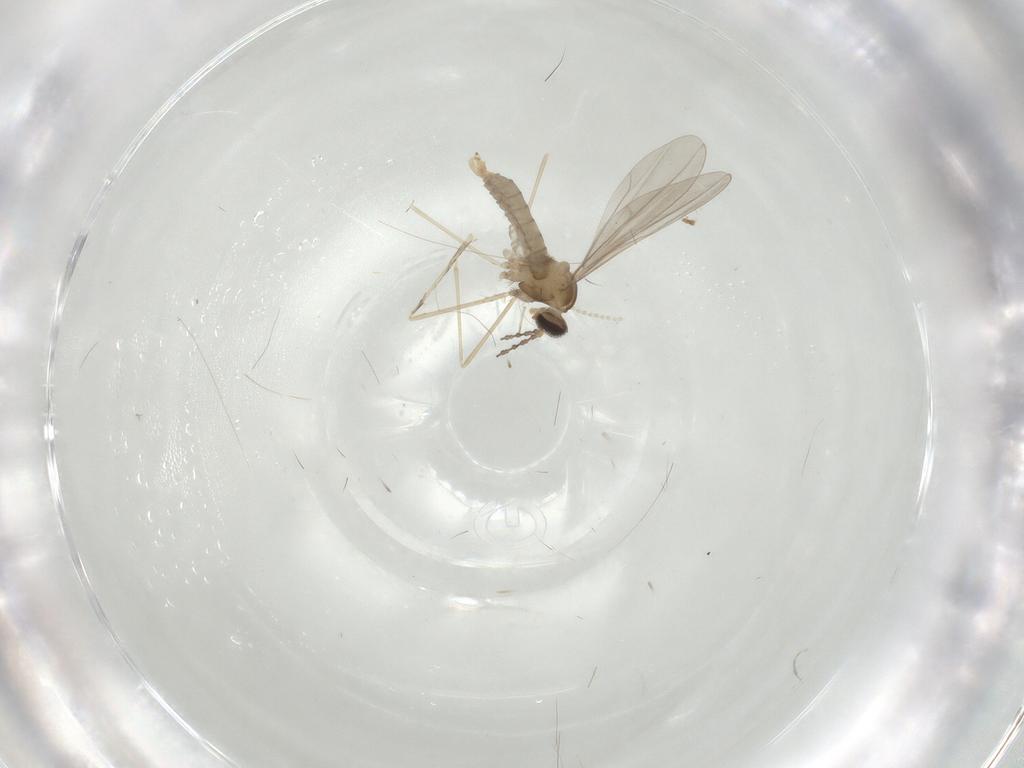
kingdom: Animalia
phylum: Arthropoda
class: Insecta
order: Diptera
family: Cecidomyiidae
